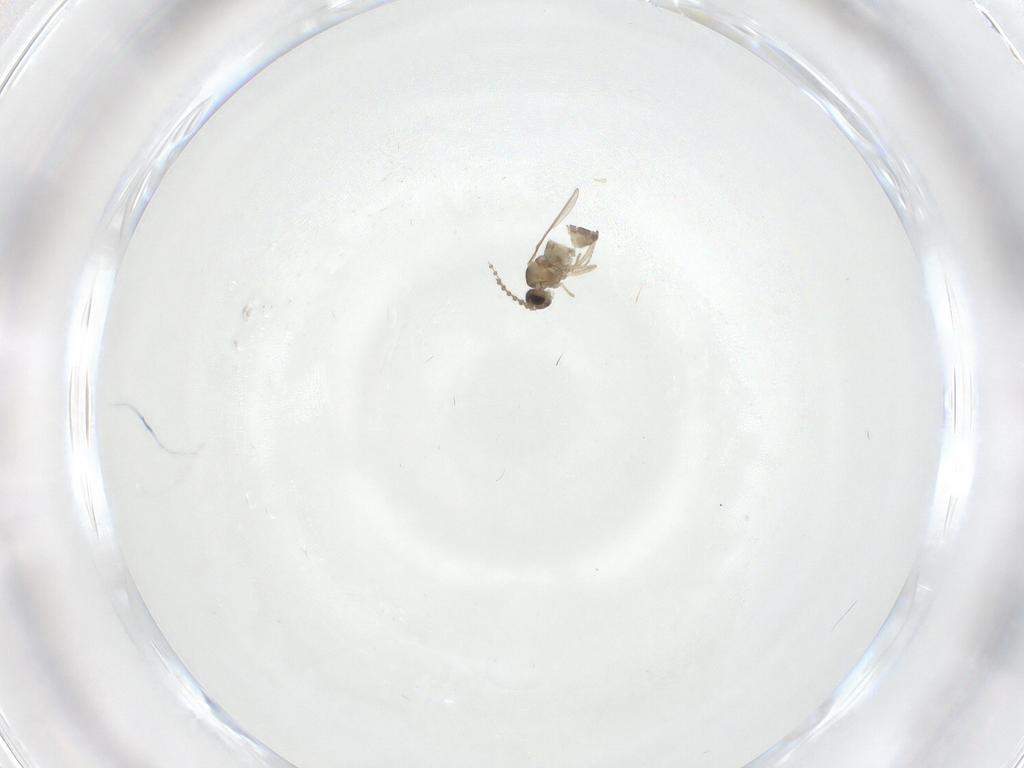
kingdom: Animalia
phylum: Arthropoda
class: Insecta
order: Diptera
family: Cecidomyiidae
